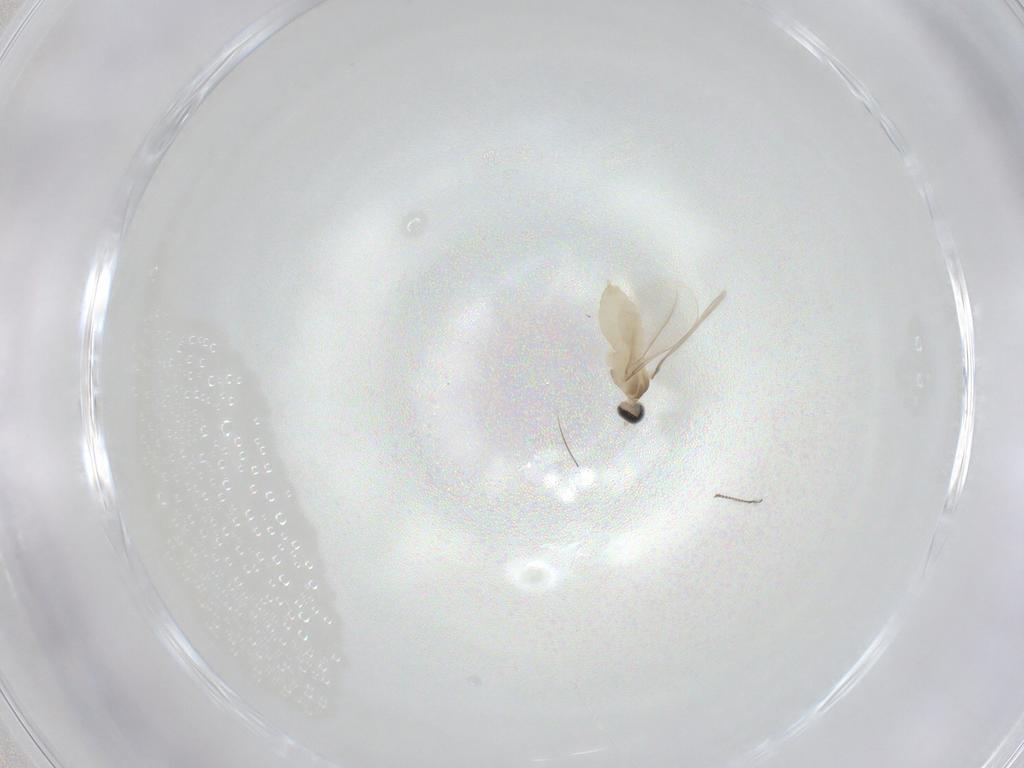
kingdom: Animalia
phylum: Arthropoda
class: Insecta
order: Diptera
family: Cecidomyiidae
